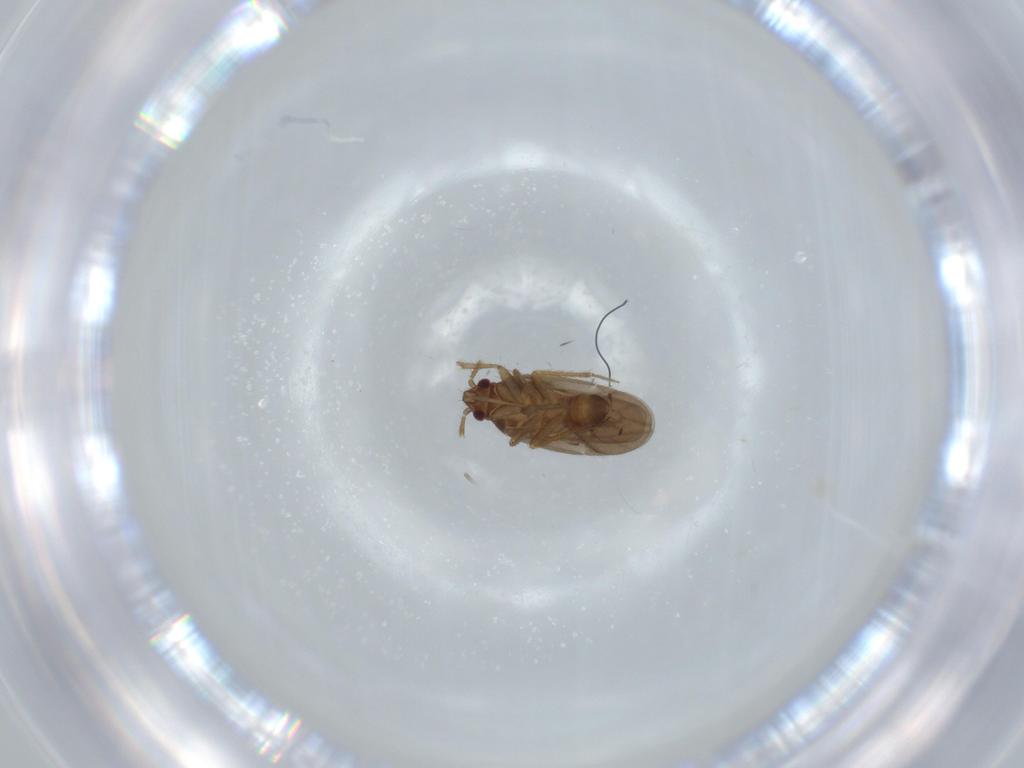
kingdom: Animalia
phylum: Arthropoda
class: Insecta
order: Hemiptera
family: Ceratocombidae
